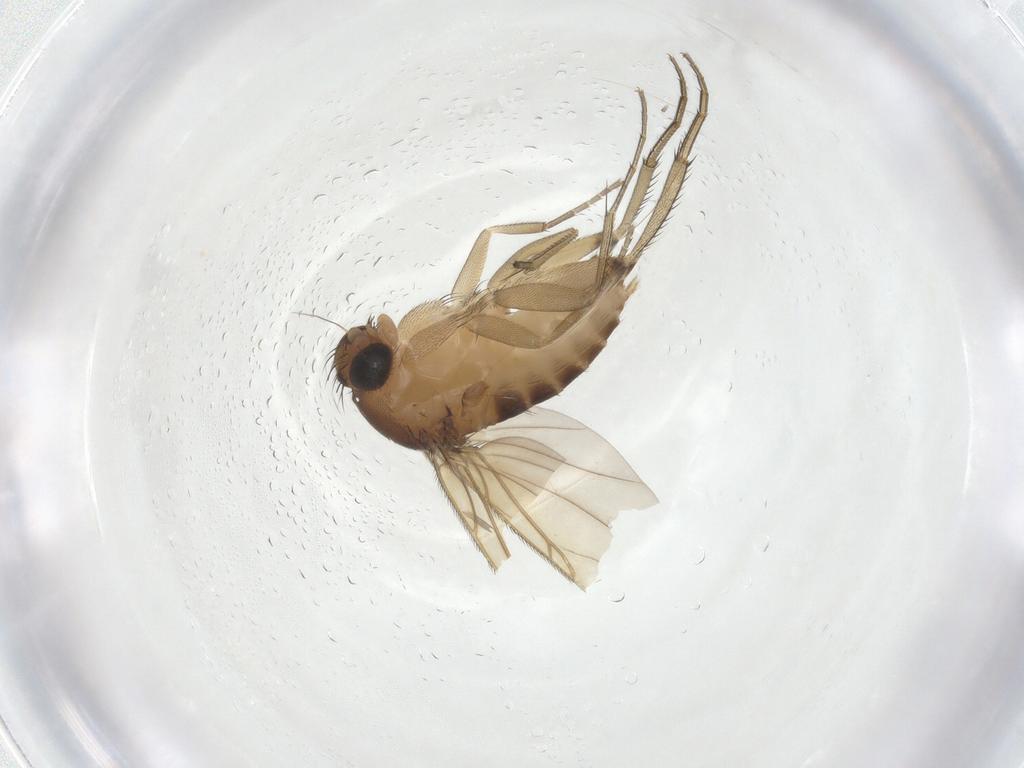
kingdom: Animalia
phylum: Arthropoda
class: Insecta
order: Diptera
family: Phoridae
